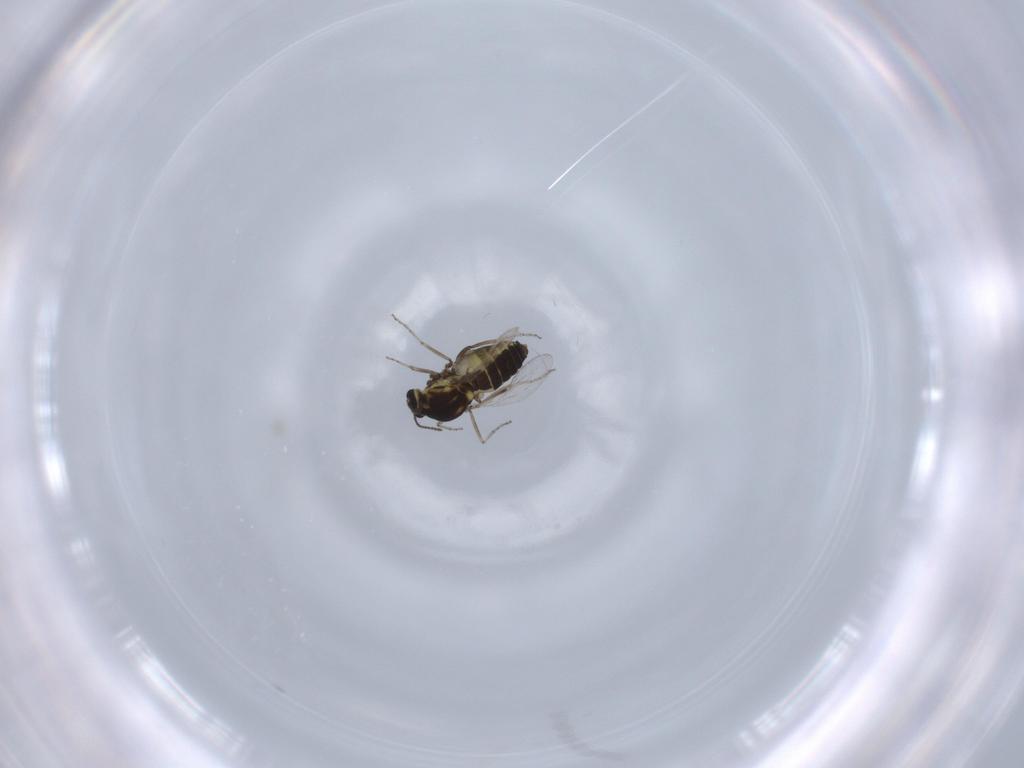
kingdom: Animalia
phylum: Arthropoda
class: Insecta
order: Diptera
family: Ceratopogonidae
